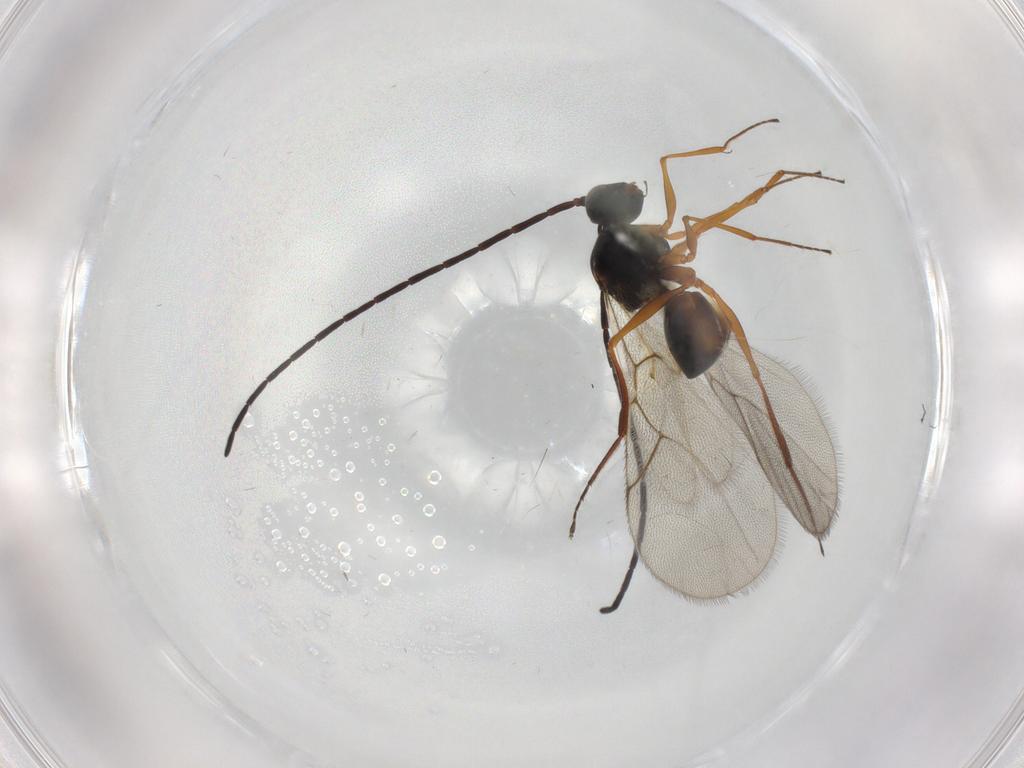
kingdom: Animalia
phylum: Arthropoda
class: Insecta
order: Hymenoptera
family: Figitidae
